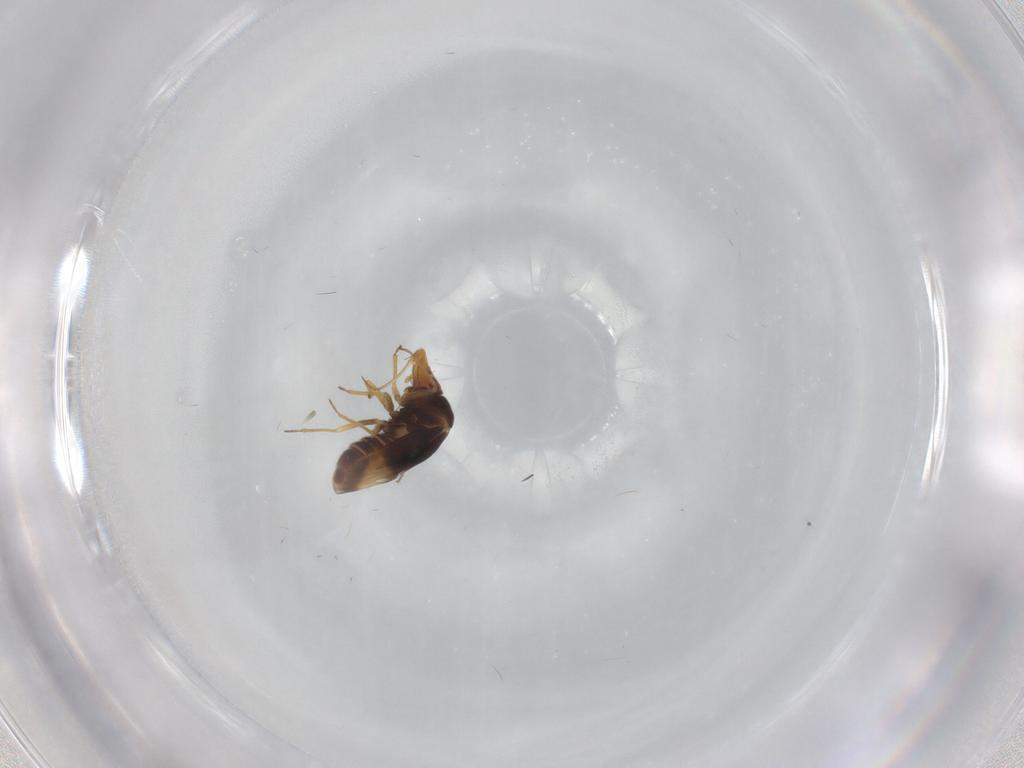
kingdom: Animalia
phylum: Arthropoda
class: Insecta
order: Hemiptera
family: Schizopteridae
